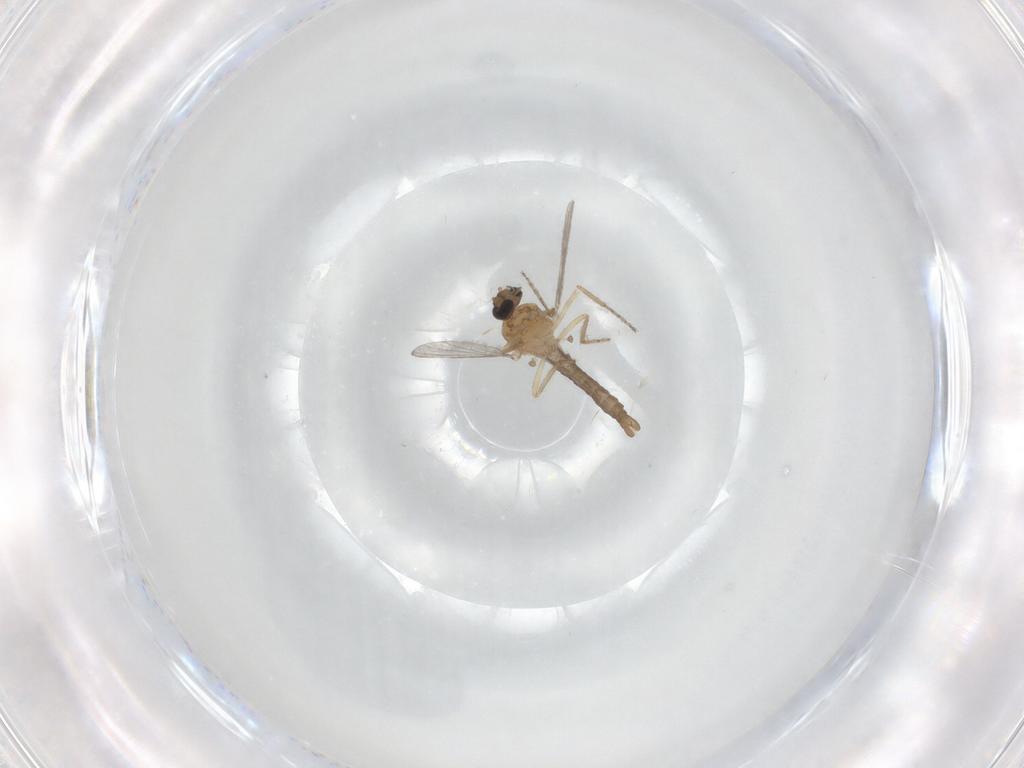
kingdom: Animalia
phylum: Arthropoda
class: Insecta
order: Diptera
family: Ceratopogonidae
